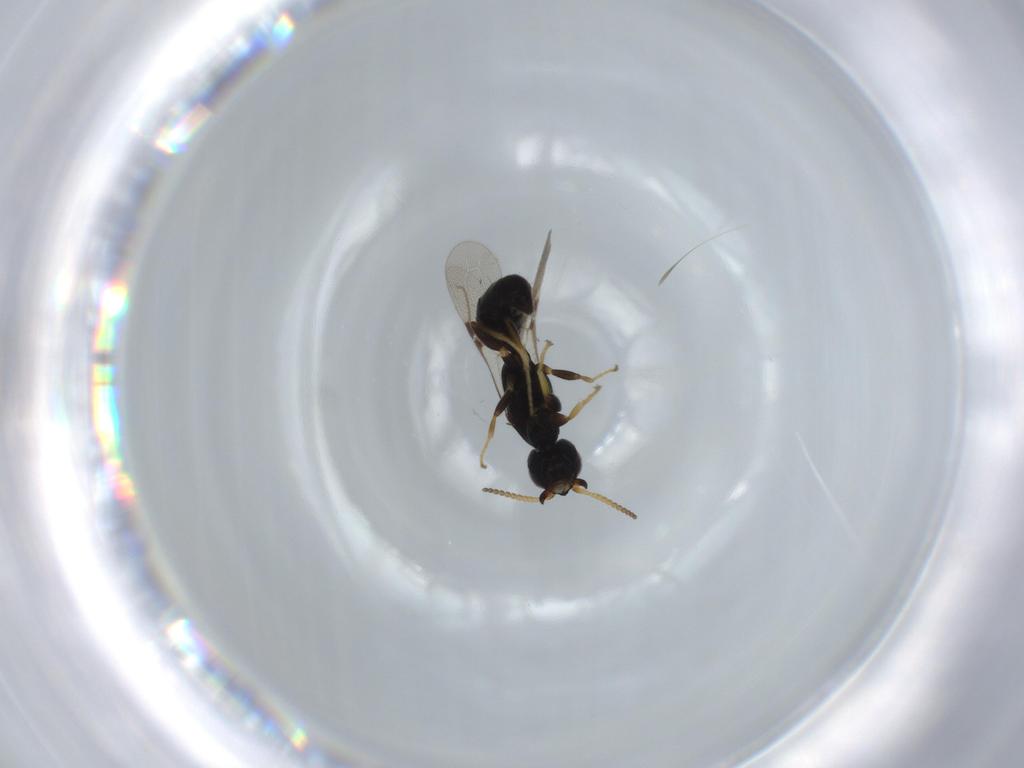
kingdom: Animalia
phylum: Arthropoda
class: Insecta
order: Hymenoptera
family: Bethylidae
